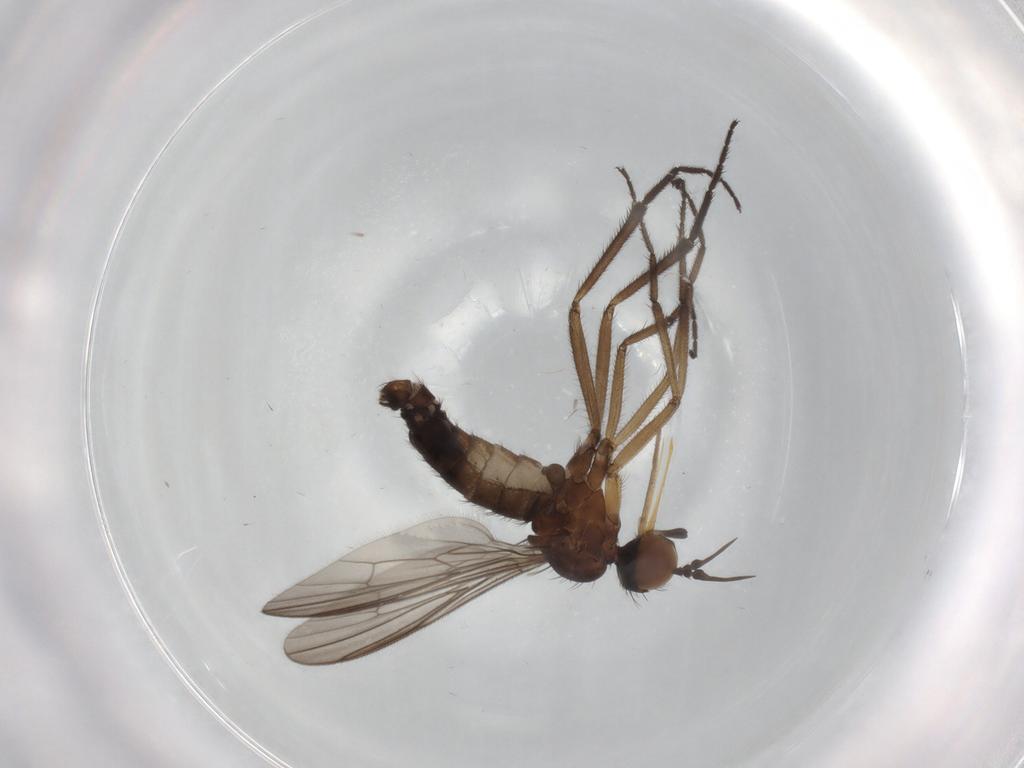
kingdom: Animalia
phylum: Arthropoda
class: Insecta
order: Diptera
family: Empididae
